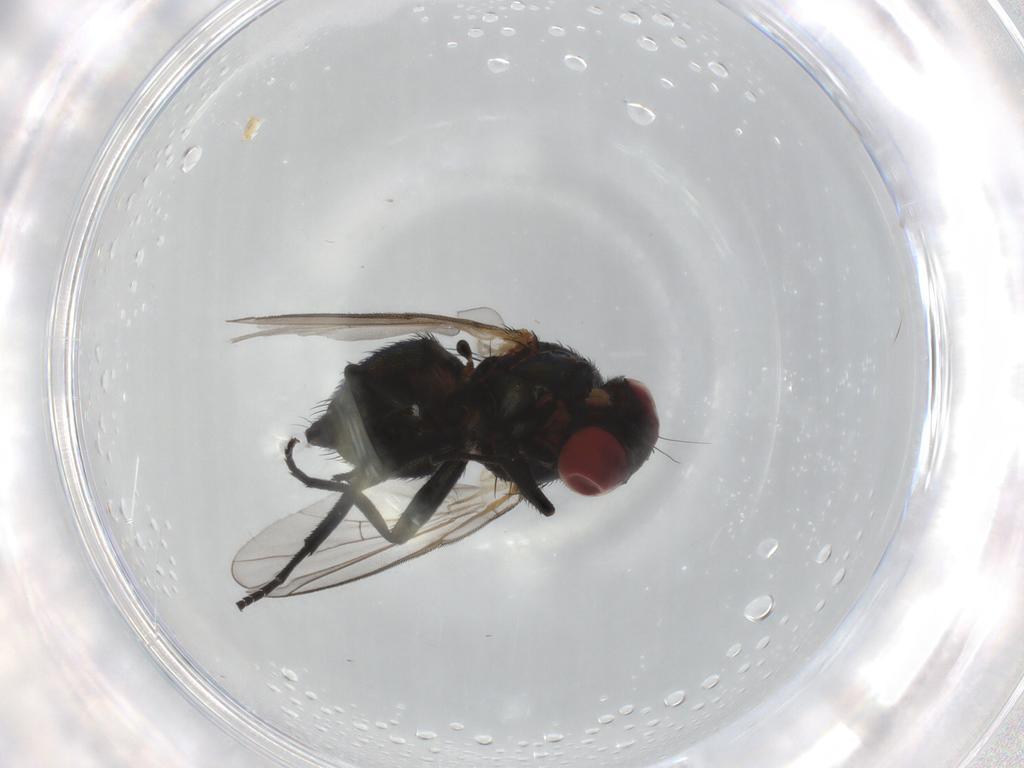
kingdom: Animalia
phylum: Arthropoda
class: Insecta
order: Diptera
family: Agromyzidae
